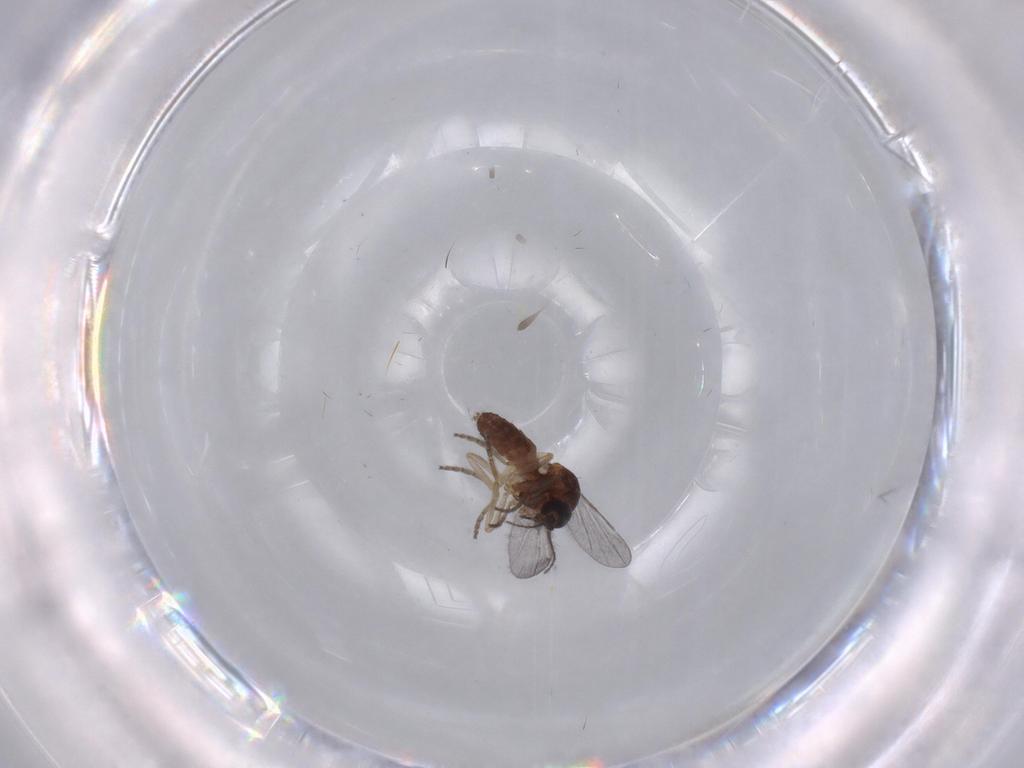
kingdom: Animalia
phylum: Arthropoda
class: Insecta
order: Diptera
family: Cecidomyiidae
